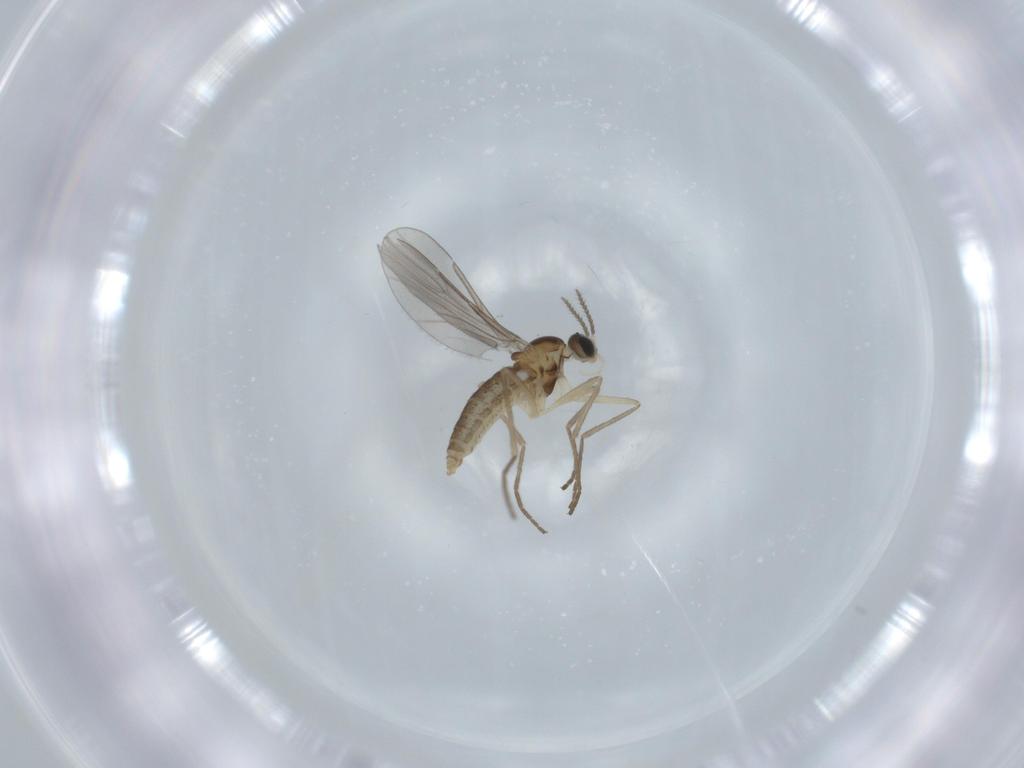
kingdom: Animalia
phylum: Arthropoda
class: Insecta
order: Diptera
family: Cecidomyiidae
